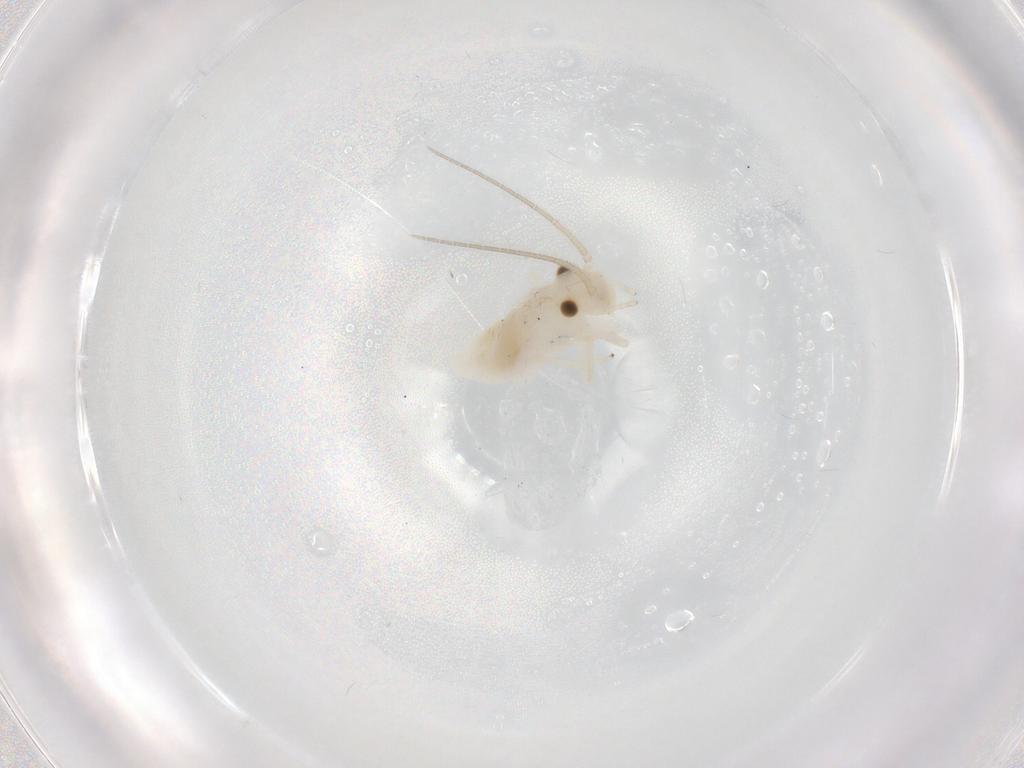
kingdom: Animalia
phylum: Arthropoda
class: Insecta
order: Psocodea
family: Caeciliusidae
